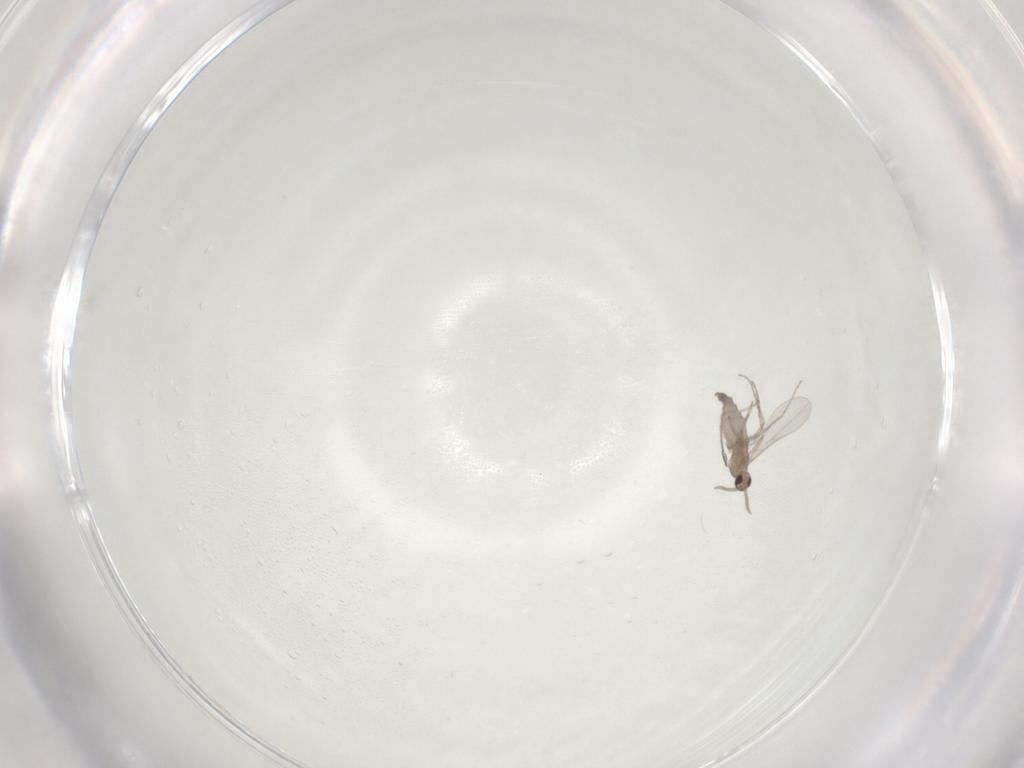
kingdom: Animalia
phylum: Arthropoda
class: Insecta
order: Diptera
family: Cecidomyiidae
